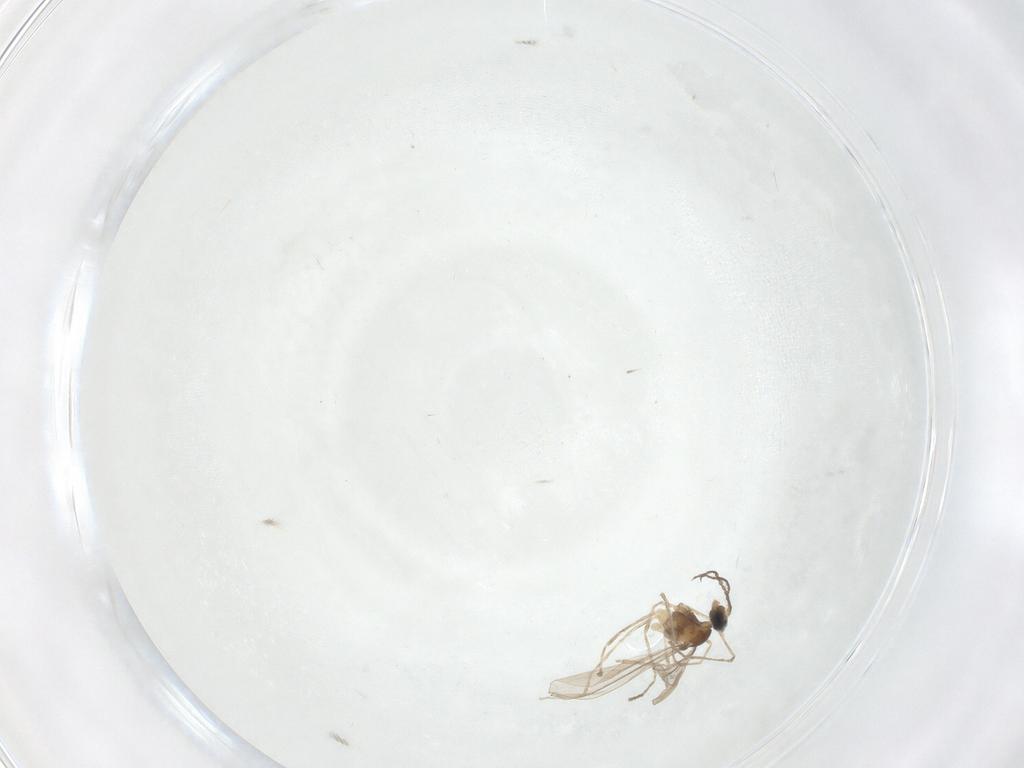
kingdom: Animalia
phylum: Arthropoda
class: Insecta
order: Diptera
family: Cecidomyiidae
